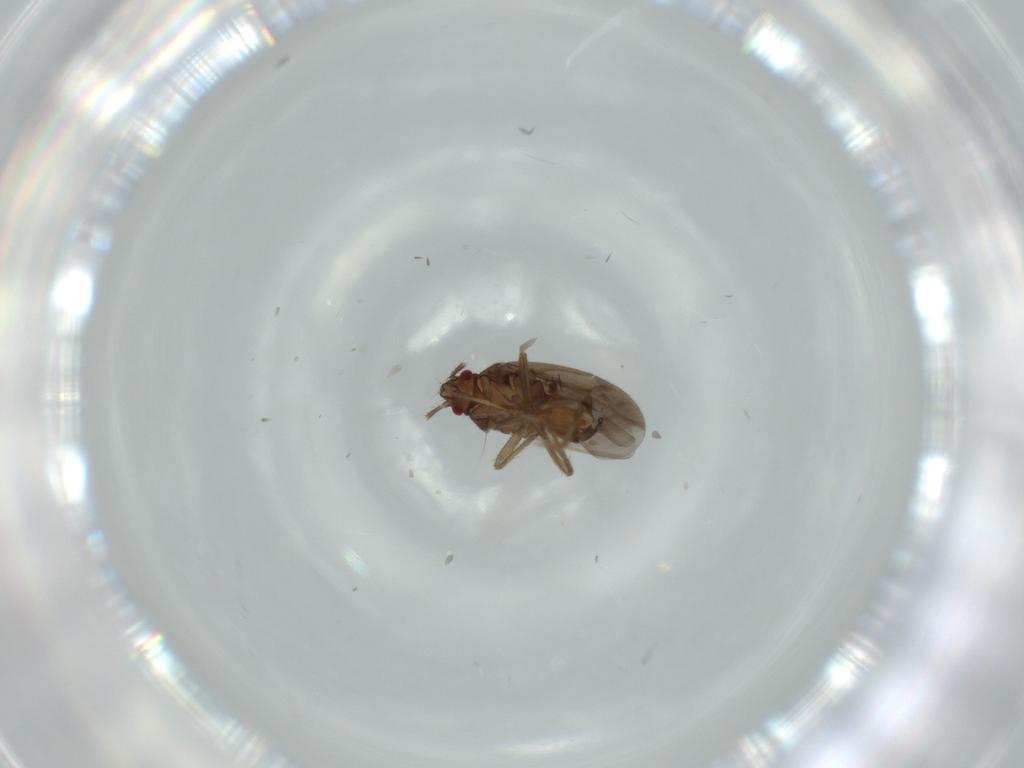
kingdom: Animalia
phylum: Arthropoda
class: Insecta
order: Hemiptera
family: Ceratocombidae
